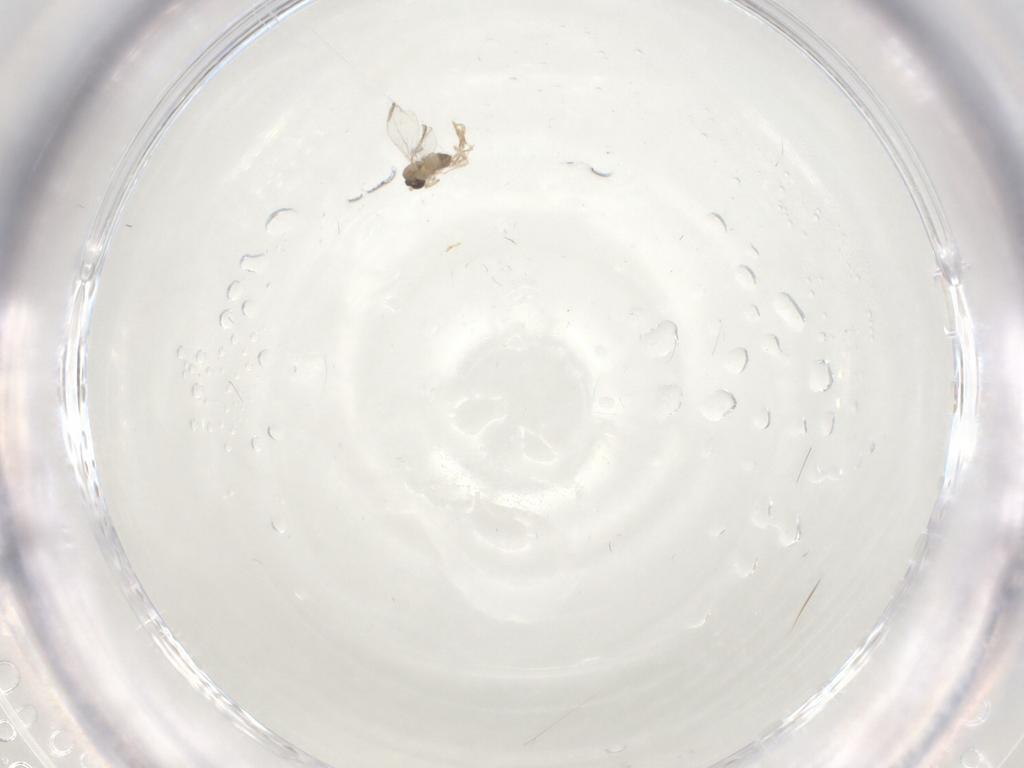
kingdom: Animalia
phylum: Arthropoda
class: Insecta
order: Diptera
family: Cecidomyiidae
